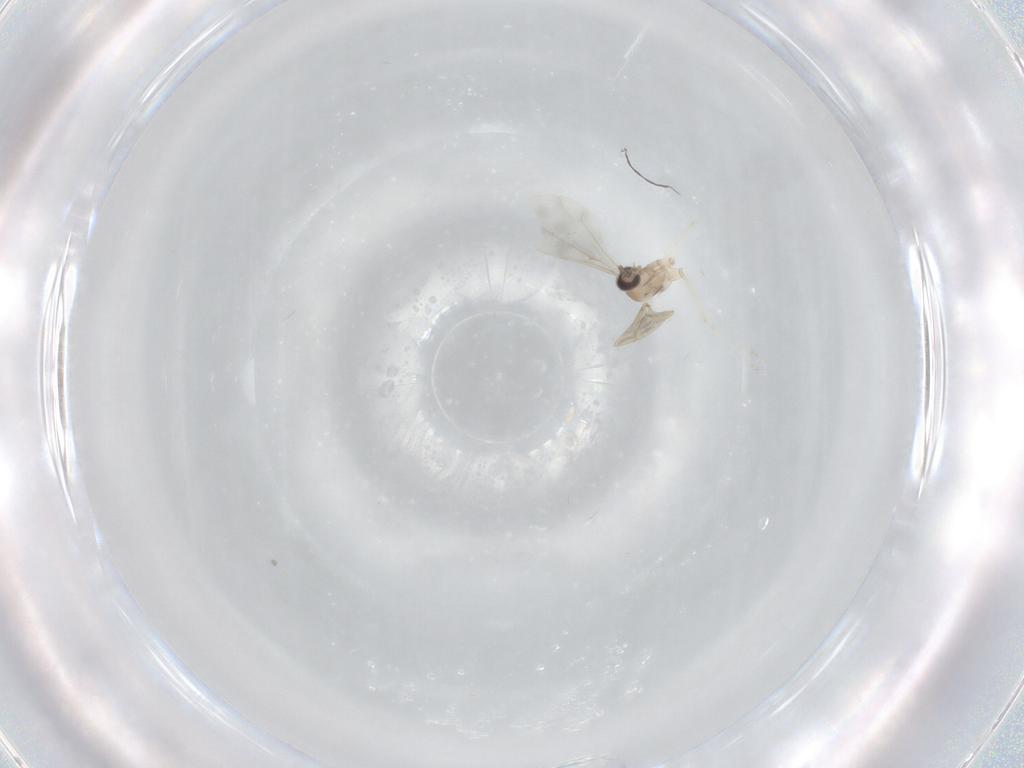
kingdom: Animalia
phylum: Arthropoda
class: Insecta
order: Diptera
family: Cecidomyiidae
